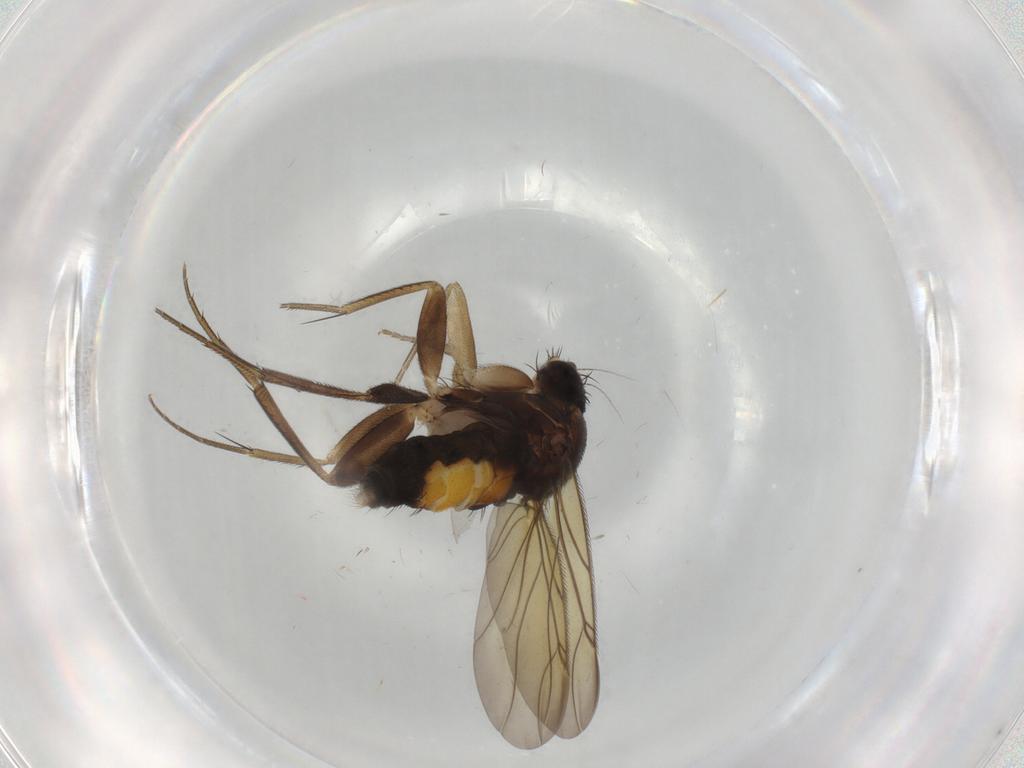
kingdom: Animalia
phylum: Arthropoda
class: Insecta
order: Diptera
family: Phoridae
